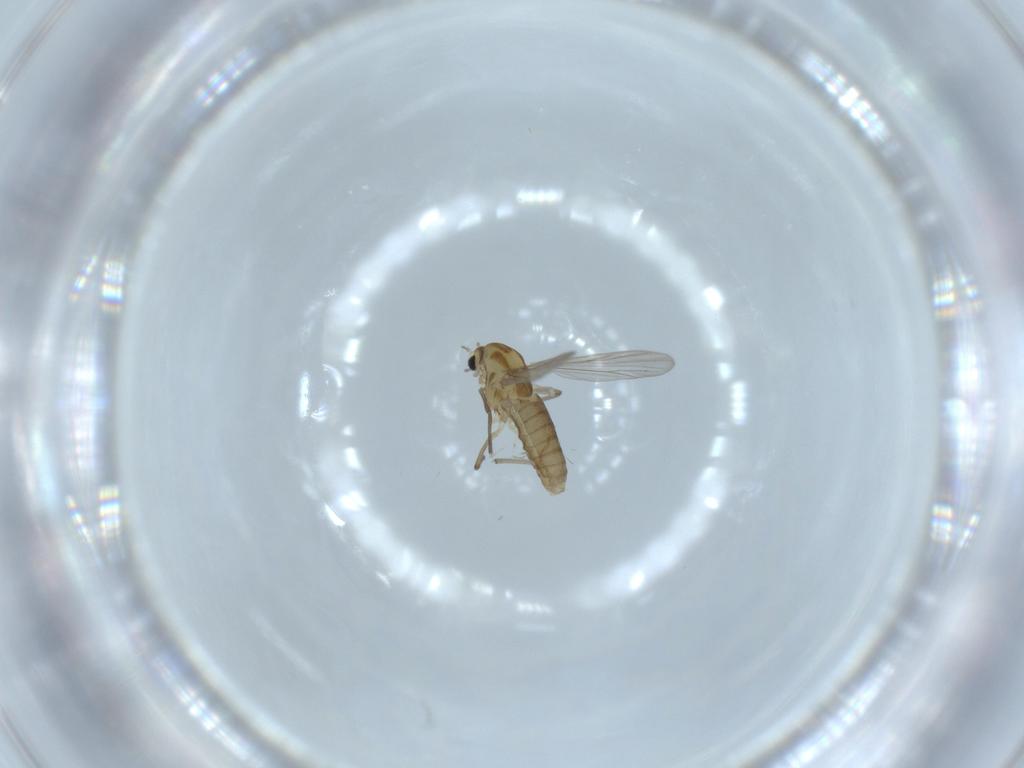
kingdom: Animalia
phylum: Arthropoda
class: Insecta
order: Diptera
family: Chironomidae
